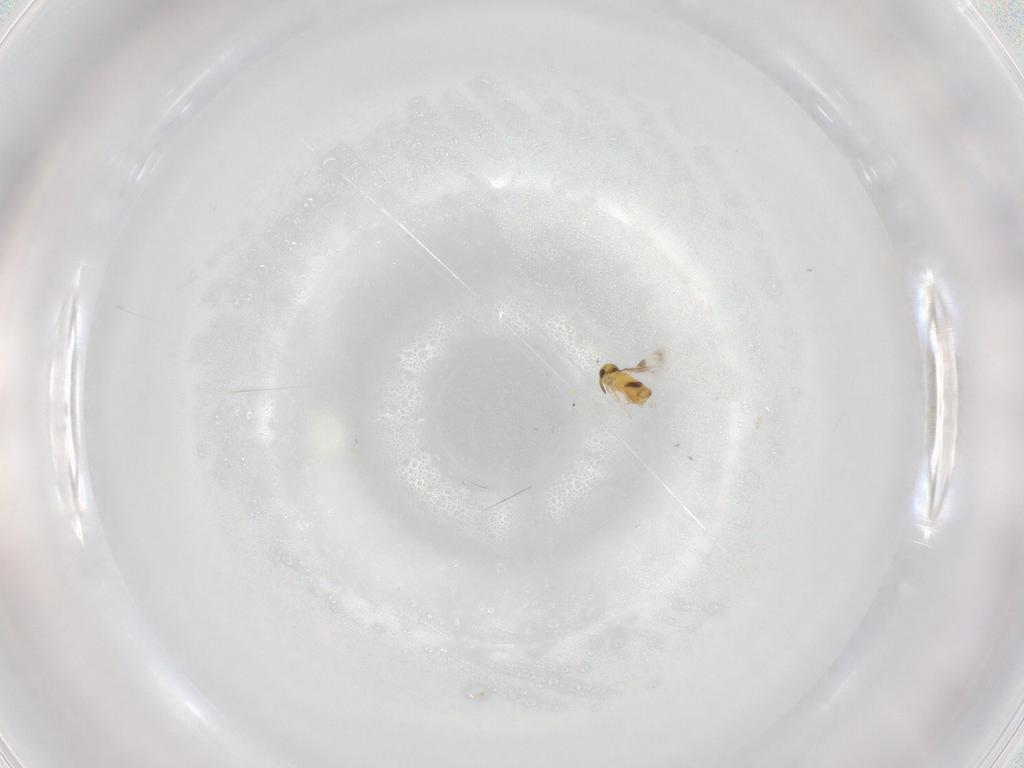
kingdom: Animalia
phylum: Arthropoda
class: Insecta
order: Hymenoptera
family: Signiphoridae
